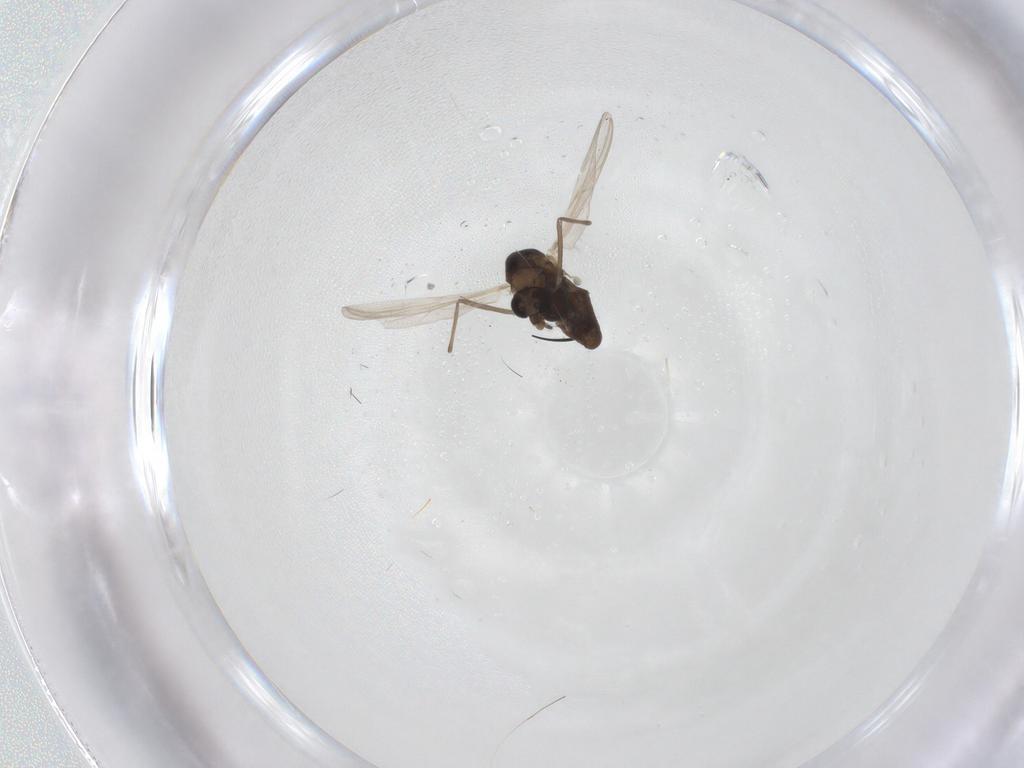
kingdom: Animalia
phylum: Arthropoda
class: Insecta
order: Diptera
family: Chironomidae
